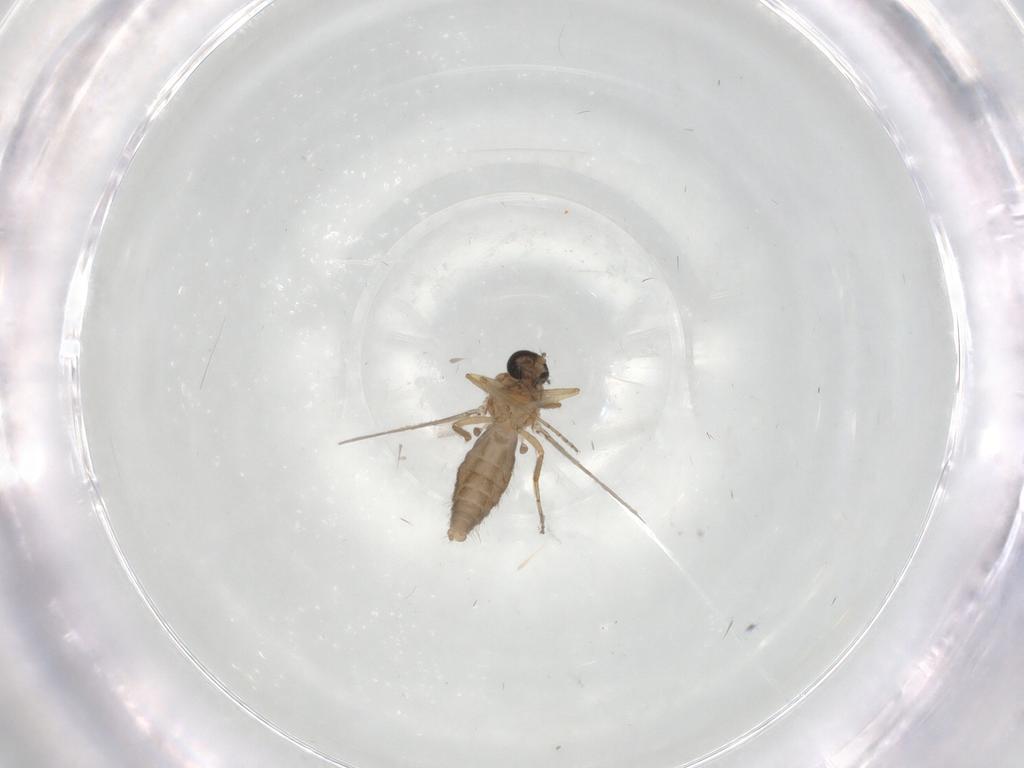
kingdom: Animalia
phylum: Arthropoda
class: Insecta
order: Diptera
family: Ceratopogonidae
